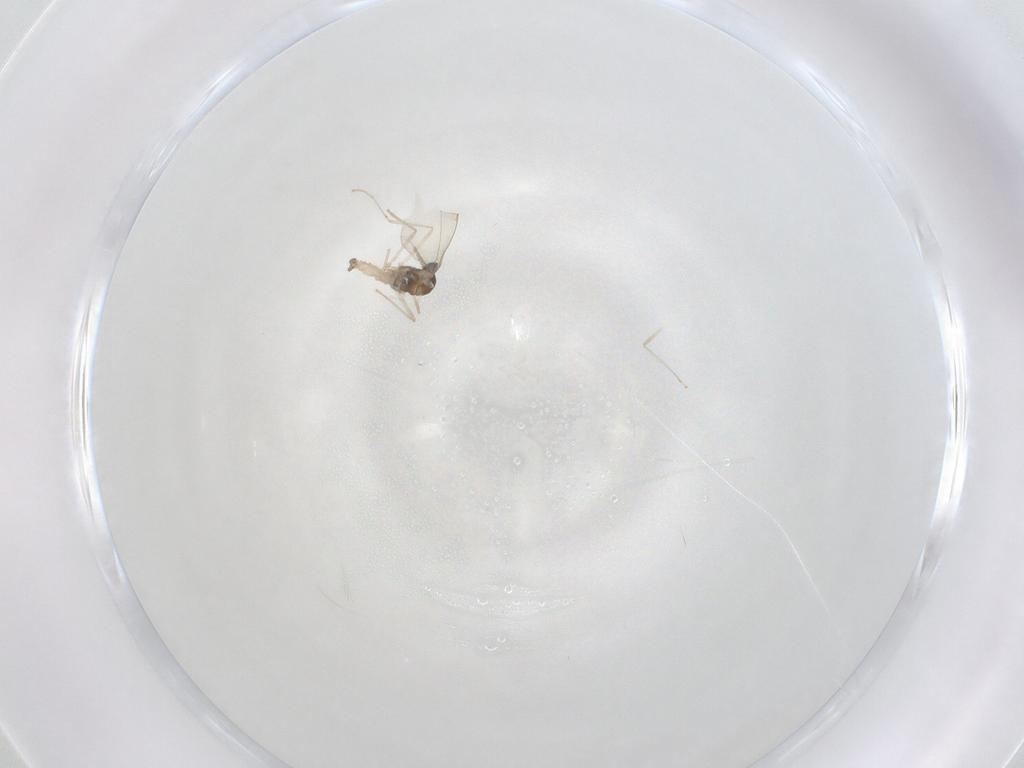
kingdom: Animalia
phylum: Arthropoda
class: Insecta
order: Diptera
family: Cecidomyiidae
